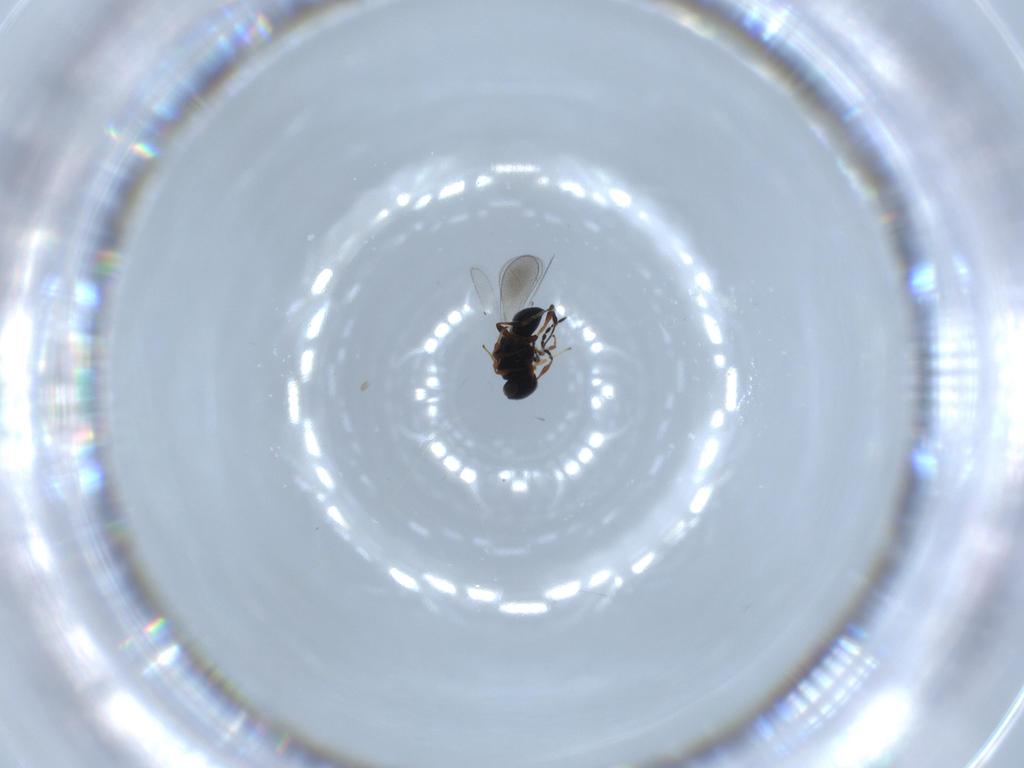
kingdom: Animalia
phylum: Arthropoda
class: Insecta
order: Hymenoptera
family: Platygastridae
